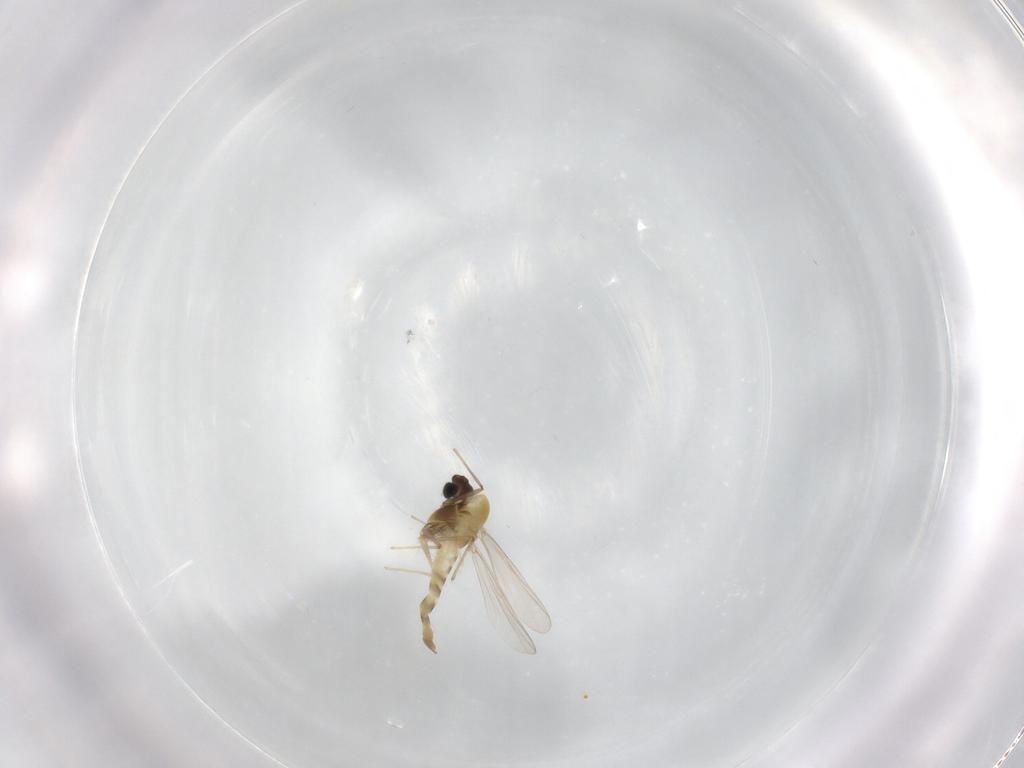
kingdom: Animalia
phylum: Arthropoda
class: Insecta
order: Diptera
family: Chironomidae
